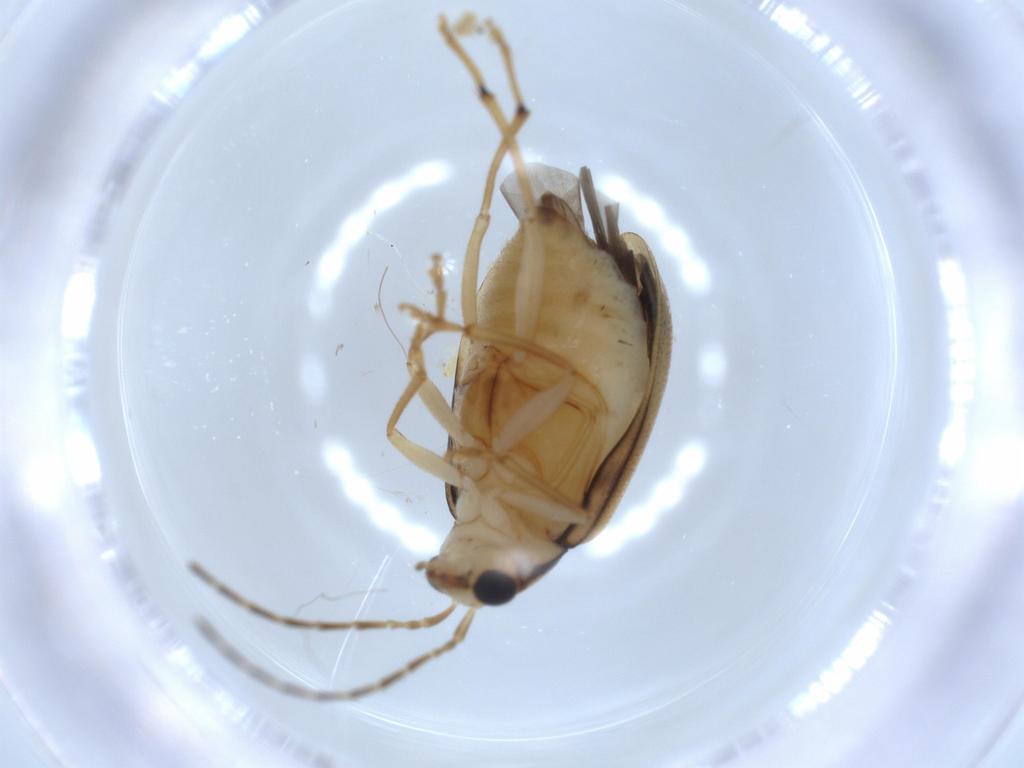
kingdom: Animalia
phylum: Arthropoda
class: Insecta
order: Coleoptera
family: Chrysomelidae
